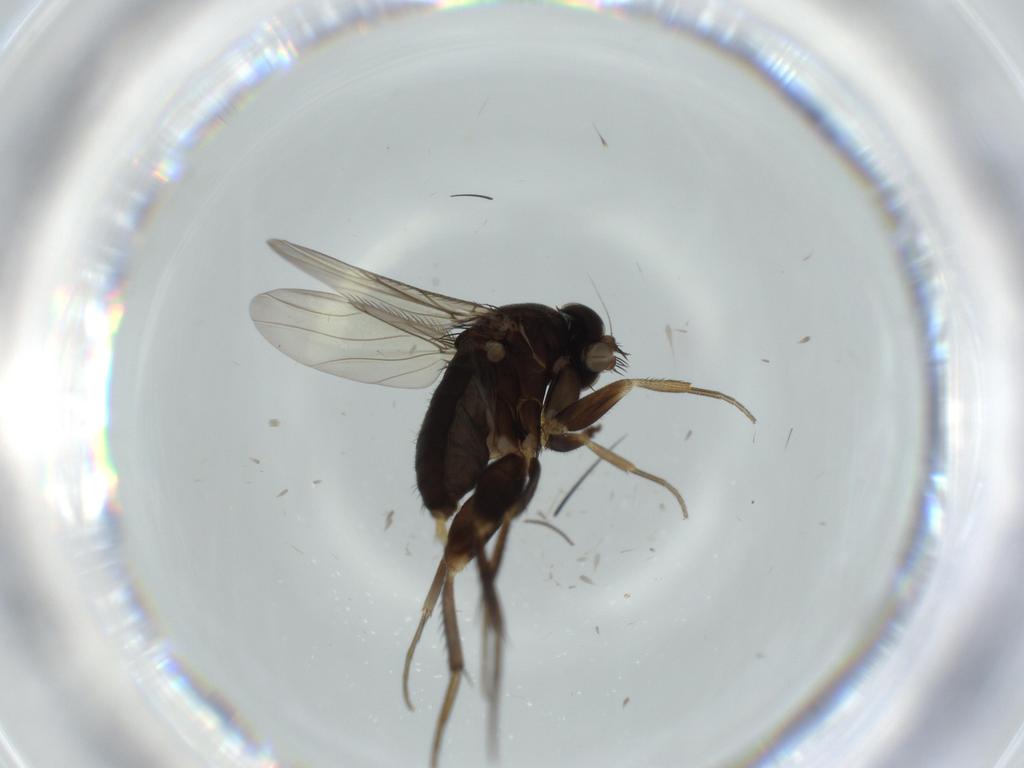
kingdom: Animalia
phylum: Arthropoda
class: Insecta
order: Diptera
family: Phoridae
